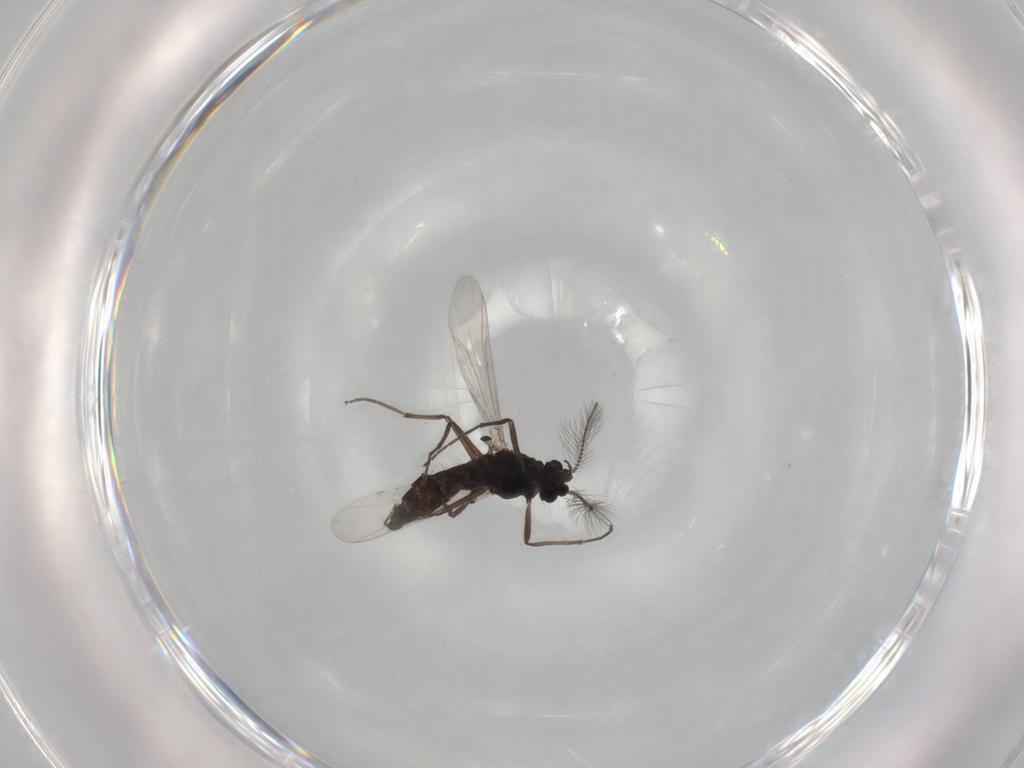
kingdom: Animalia
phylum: Arthropoda
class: Insecta
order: Diptera
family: Chironomidae
